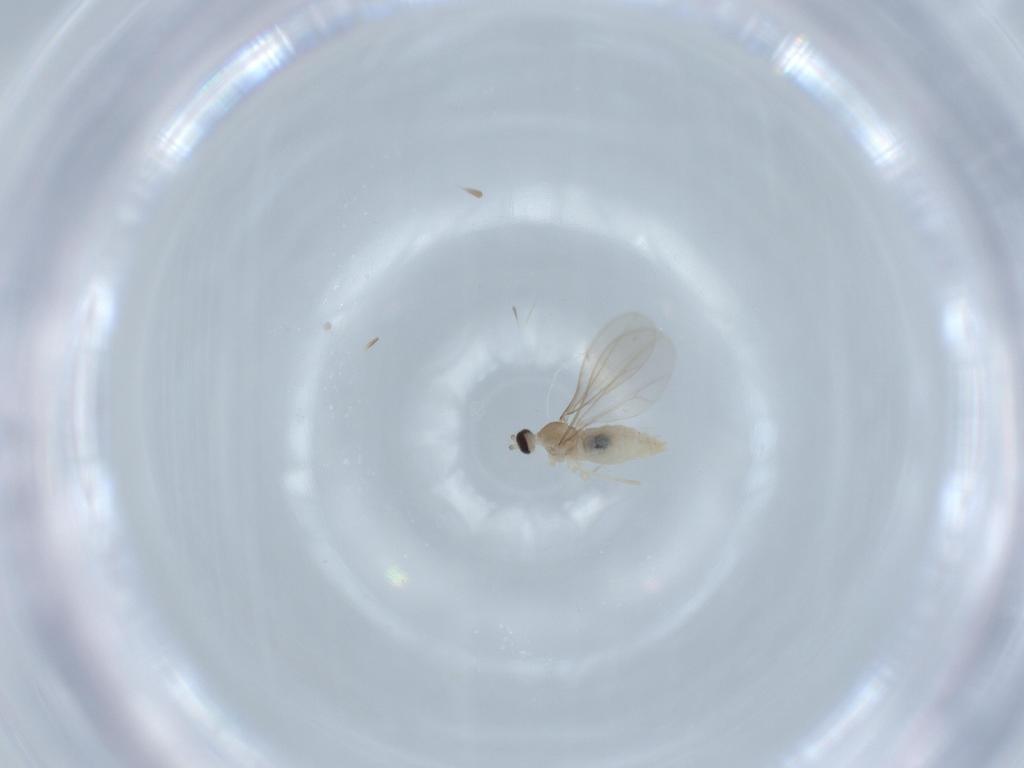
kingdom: Animalia
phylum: Arthropoda
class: Insecta
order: Diptera
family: Cecidomyiidae
